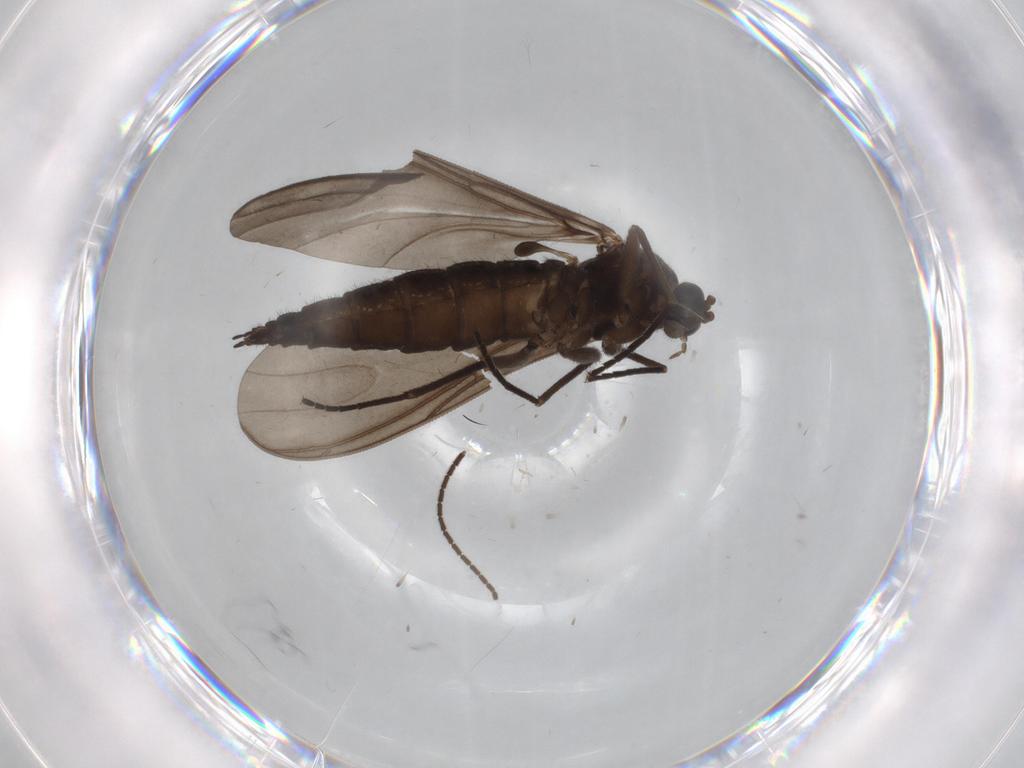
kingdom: Animalia
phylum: Arthropoda
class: Insecta
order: Diptera
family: Sciaridae
